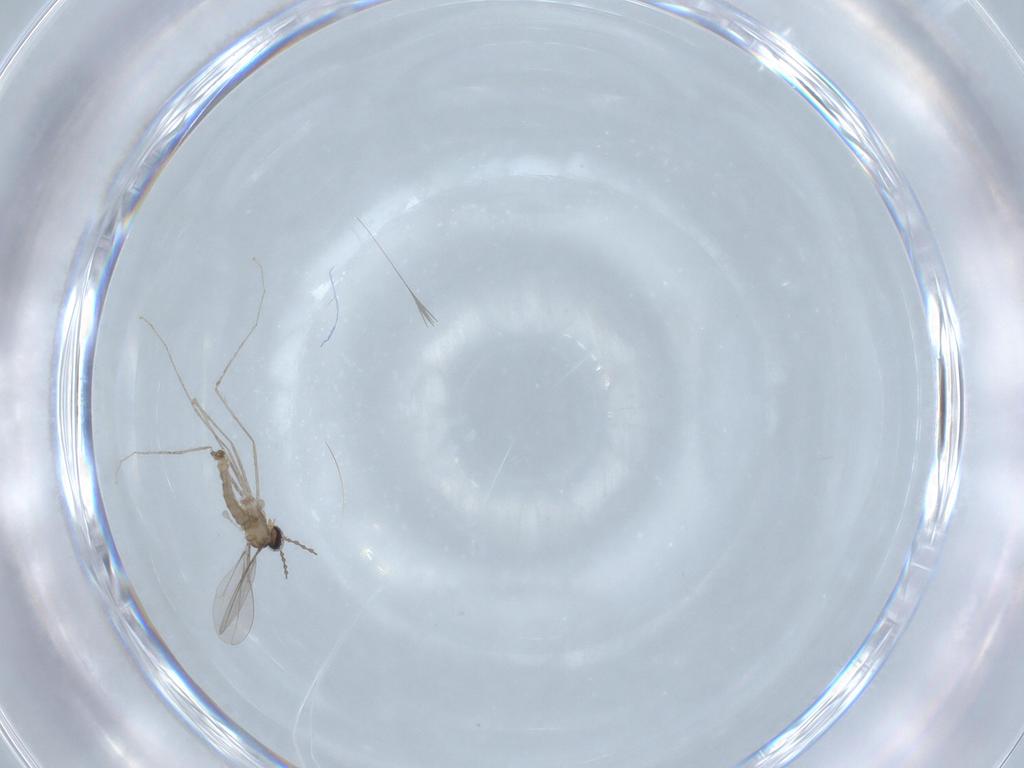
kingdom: Animalia
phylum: Arthropoda
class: Insecta
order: Diptera
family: Cecidomyiidae
